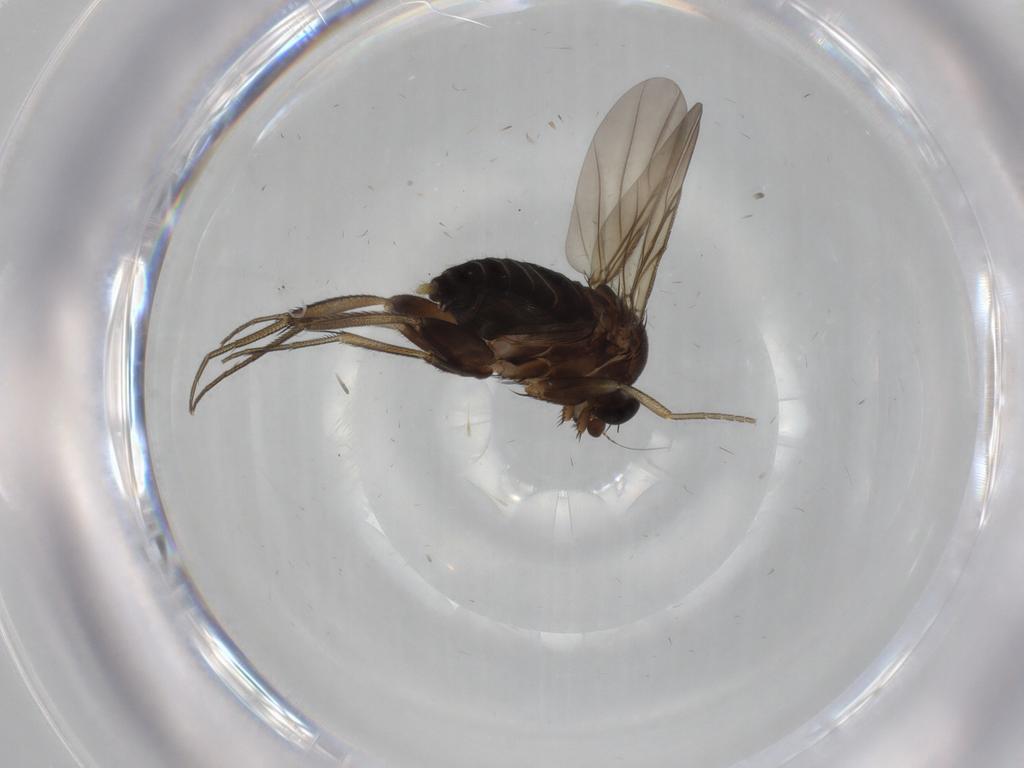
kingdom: Animalia
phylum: Arthropoda
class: Insecta
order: Diptera
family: Phoridae
